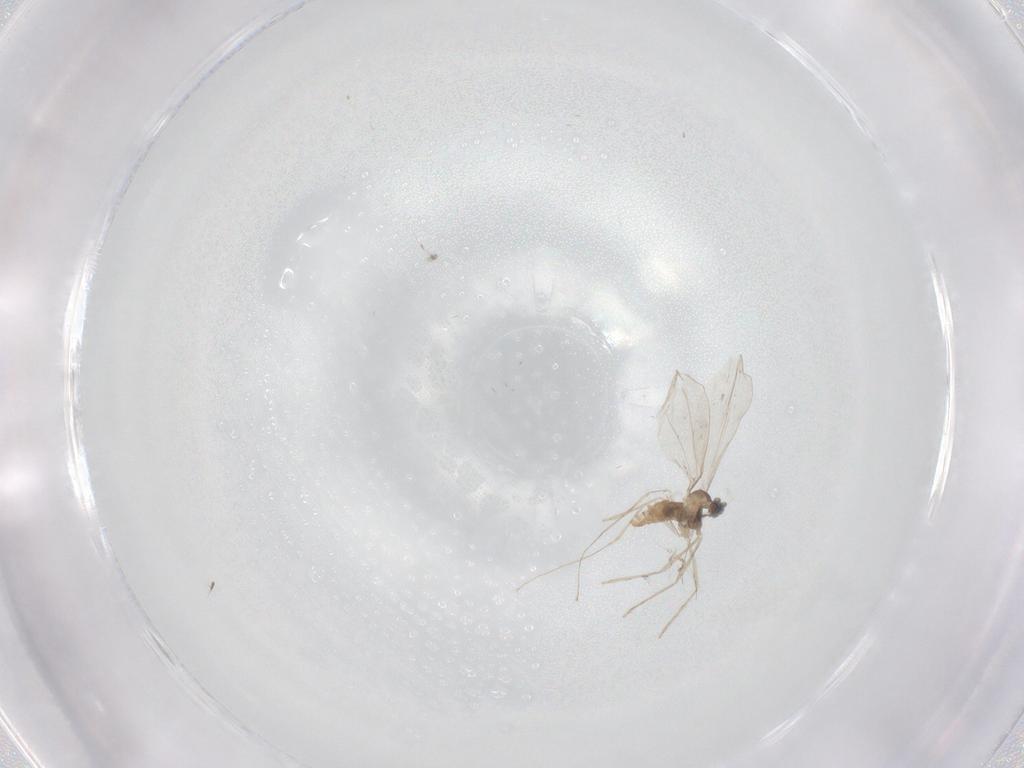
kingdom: Animalia
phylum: Arthropoda
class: Insecta
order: Diptera
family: Cecidomyiidae
